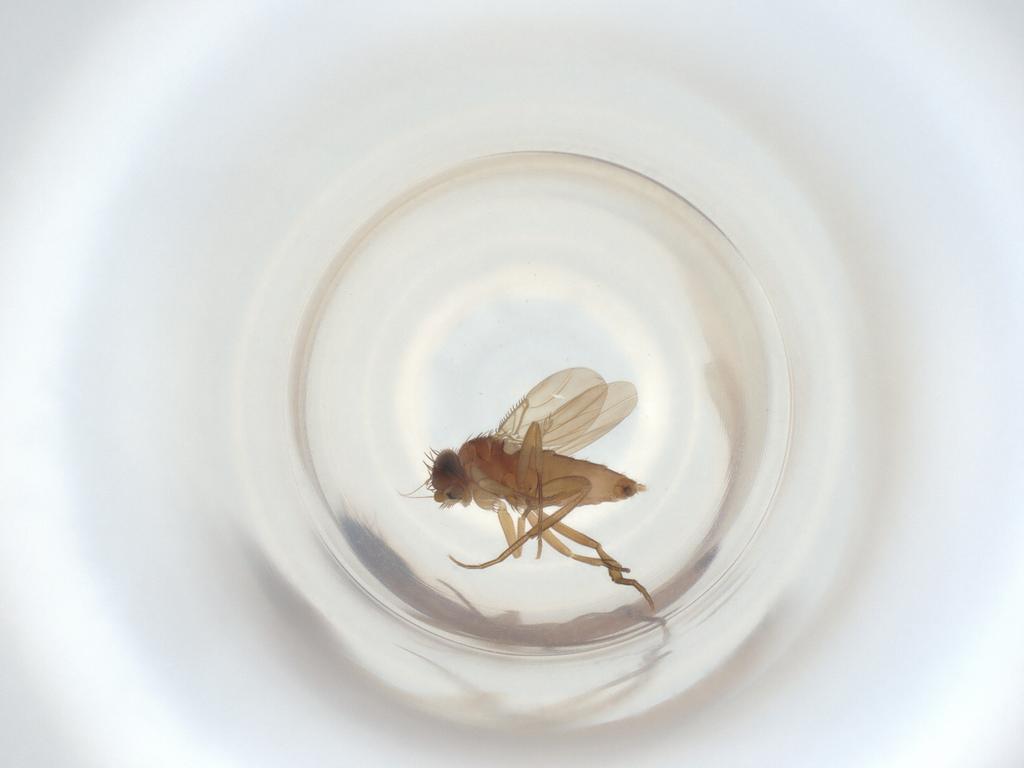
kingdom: Animalia
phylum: Arthropoda
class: Insecta
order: Diptera
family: Phoridae
